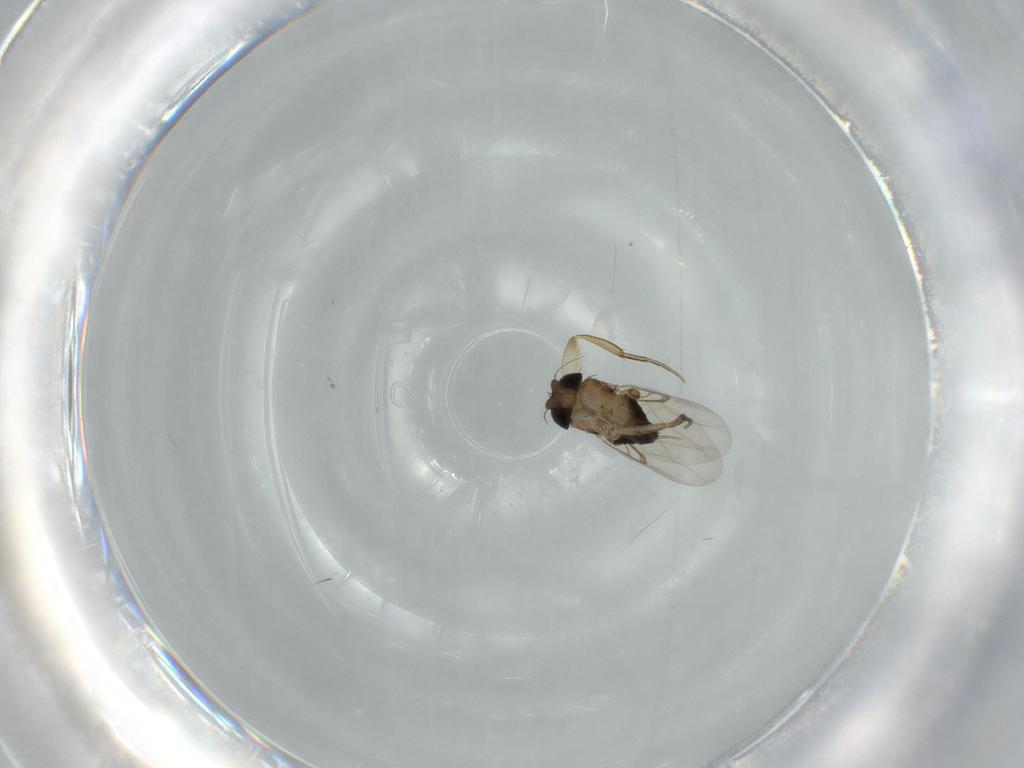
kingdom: Animalia
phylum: Arthropoda
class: Insecta
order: Diptera
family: Phoridae
